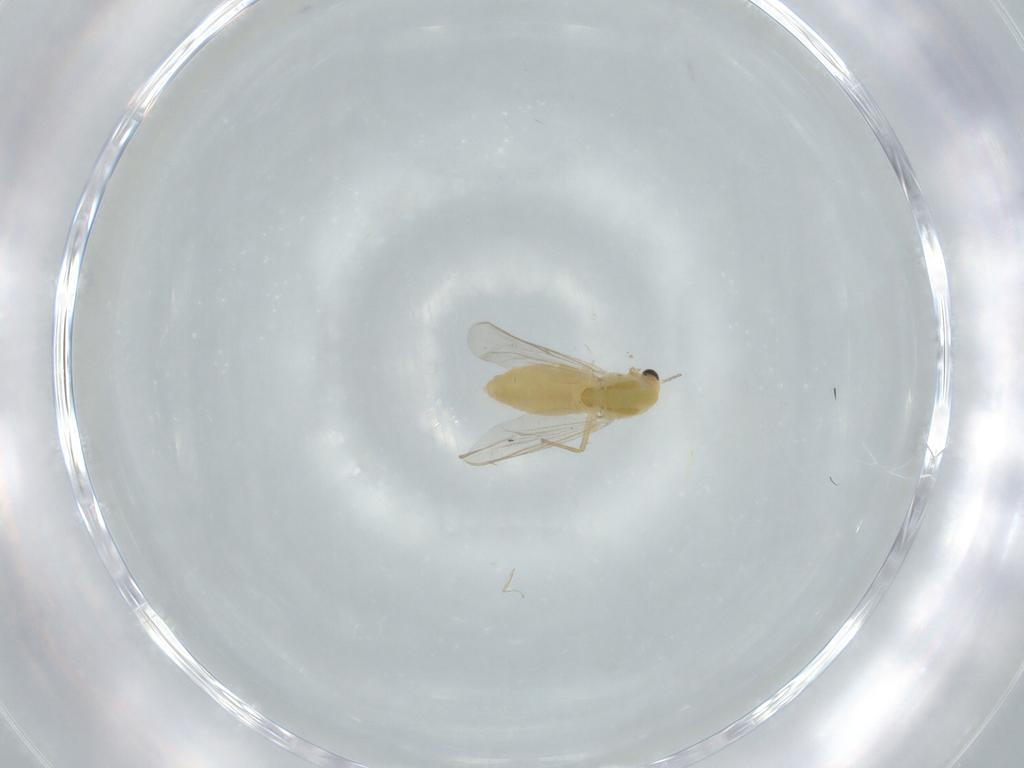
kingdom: Animalia
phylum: Arthropoda
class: Insecta
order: Diptera
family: Chironomidae
